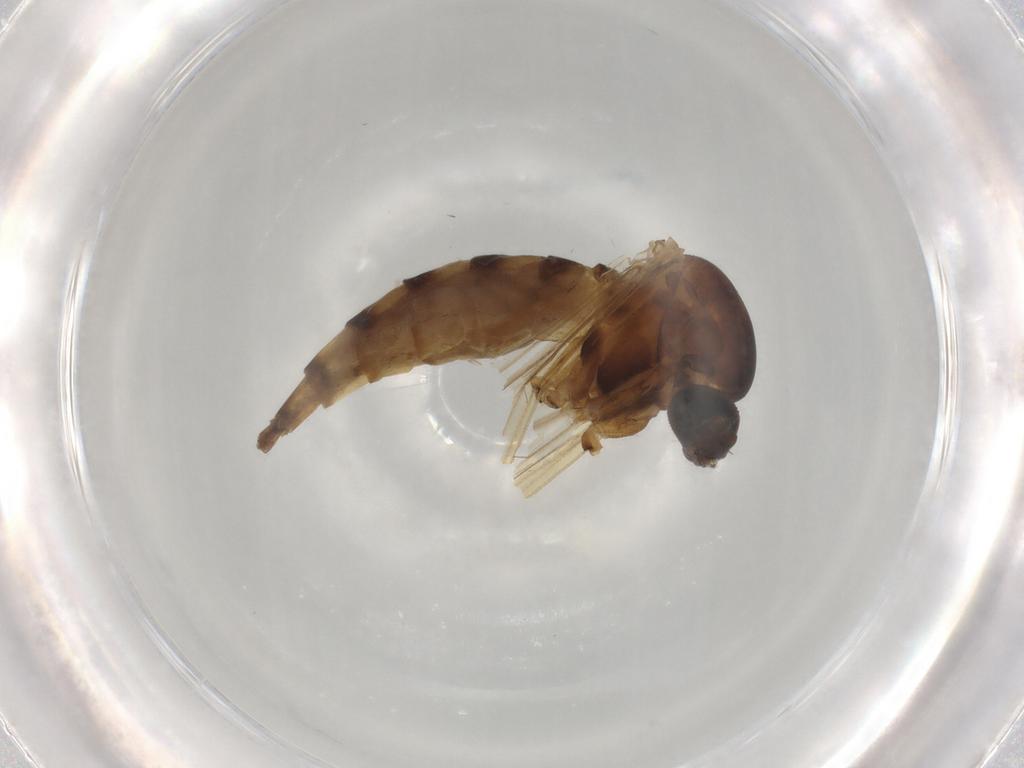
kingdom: Animalia
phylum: Arthropoda
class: Insecta
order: Diptera
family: Psychodidae
